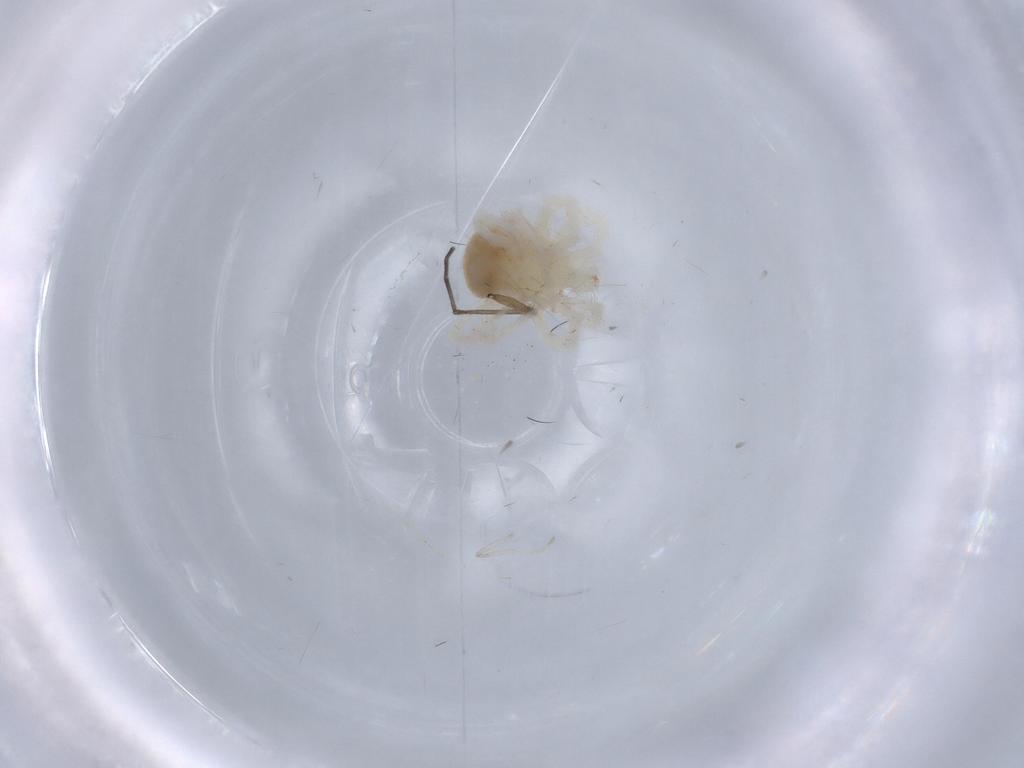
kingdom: Animalia
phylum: Arthropoda
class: Arachnida
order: Trombidiformes
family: Anystidae
